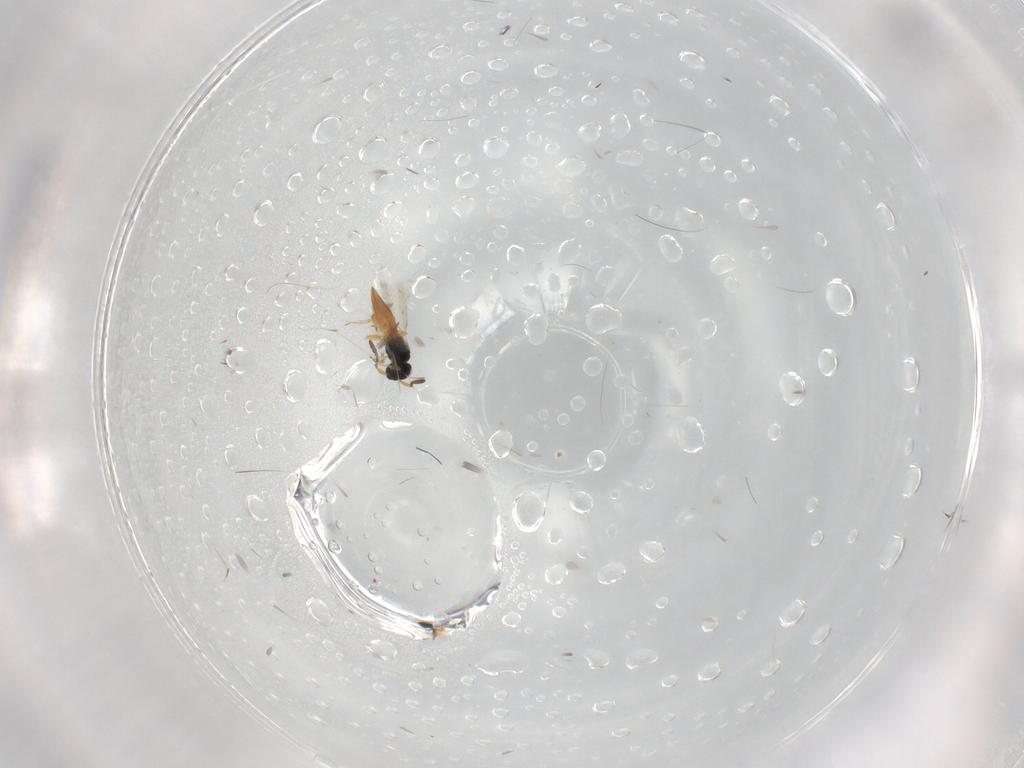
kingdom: Animalia
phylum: Arthropoda
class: Insecta
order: Hymenoptera
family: Scelionidae
